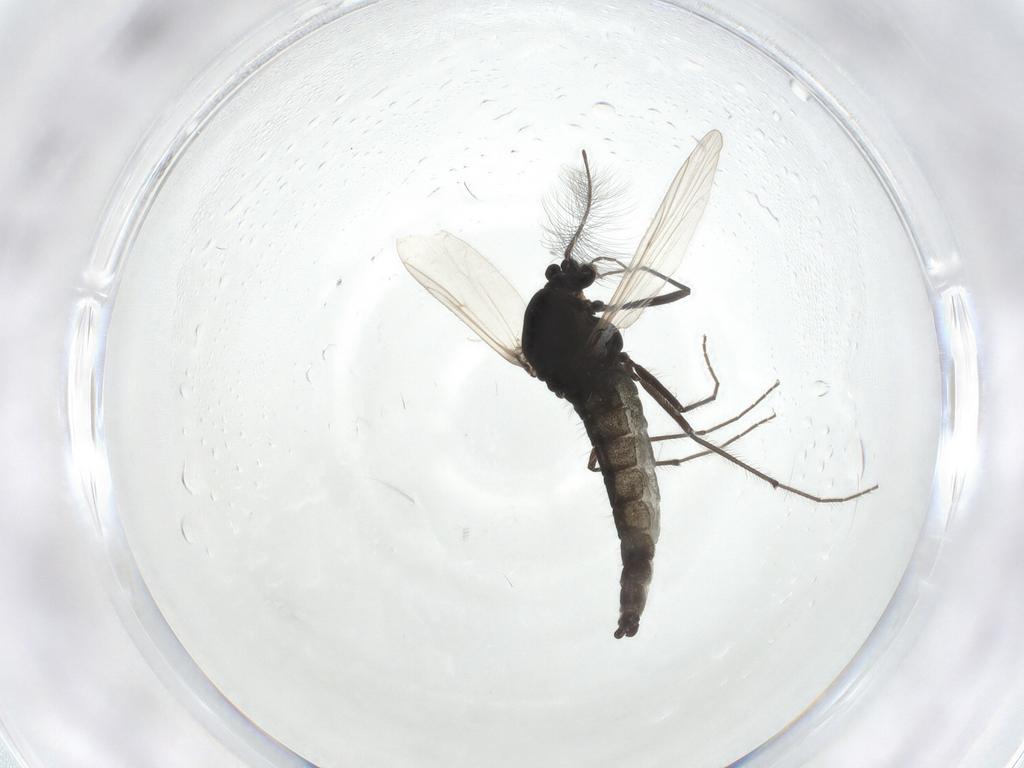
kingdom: Animalia
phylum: Arthropoda
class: Insecta
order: Diptera
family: Chironomidae
